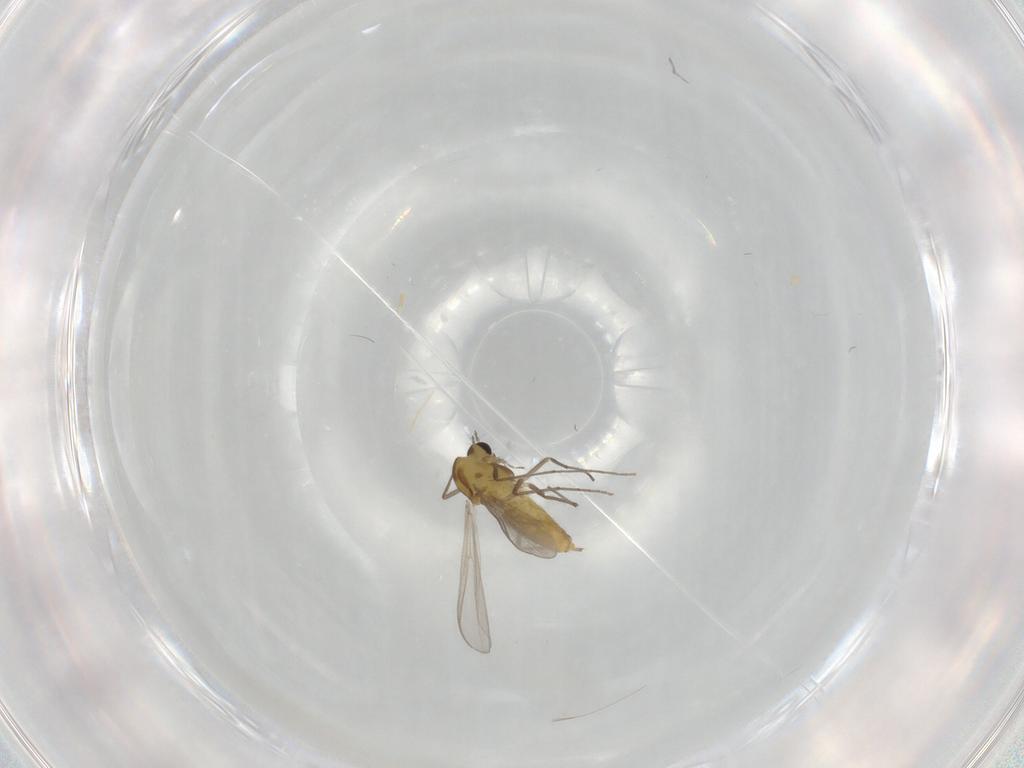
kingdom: Animalia
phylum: Arthropoda
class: Insecta
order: Diptera
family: Chironomidae
